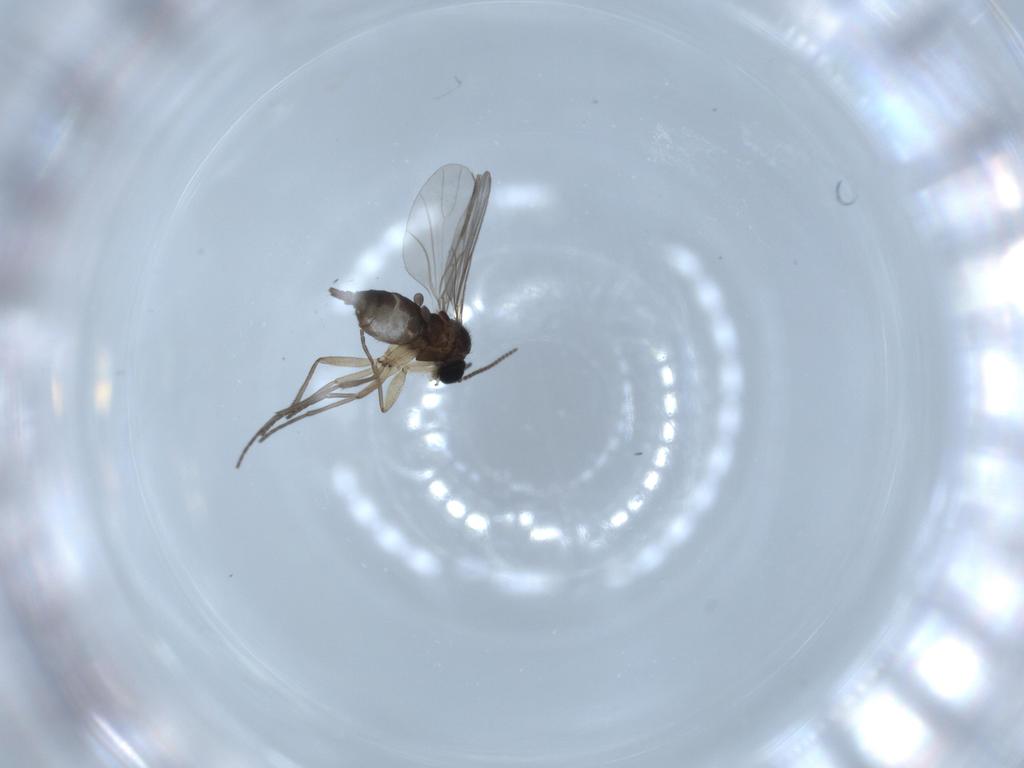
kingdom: Animalia
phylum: Arthropoda
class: Insecta
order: Diptera
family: Sciaridae
